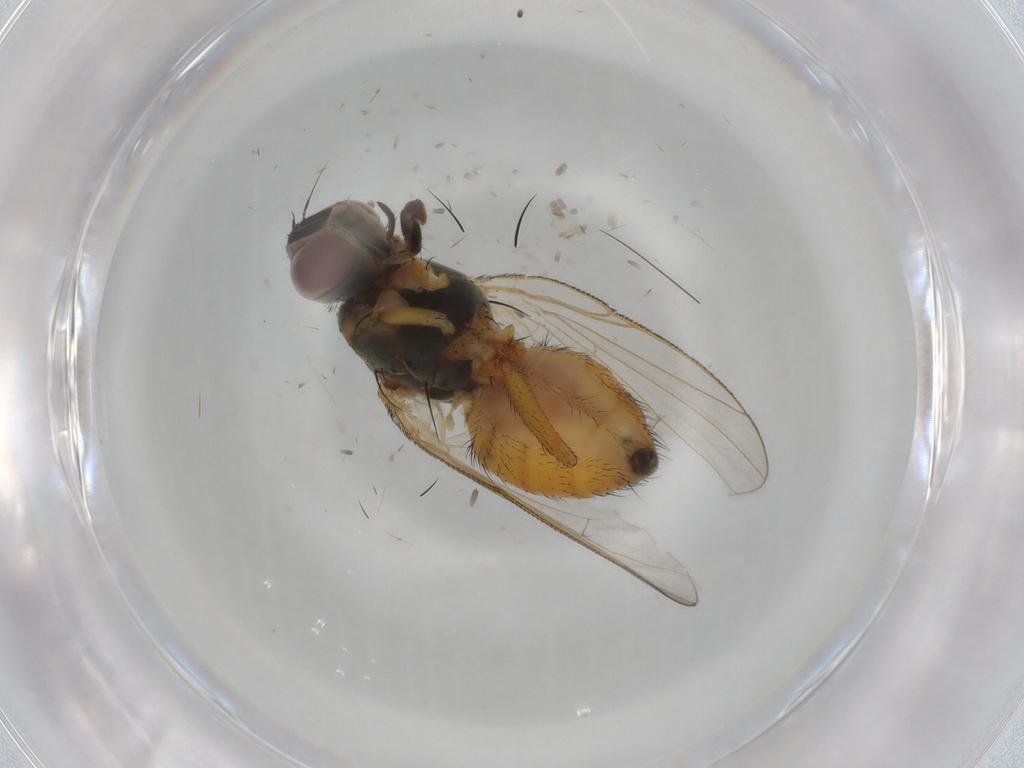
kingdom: Animalia
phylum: Arthropoda
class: Insecta
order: Diptera
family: Muscidae
